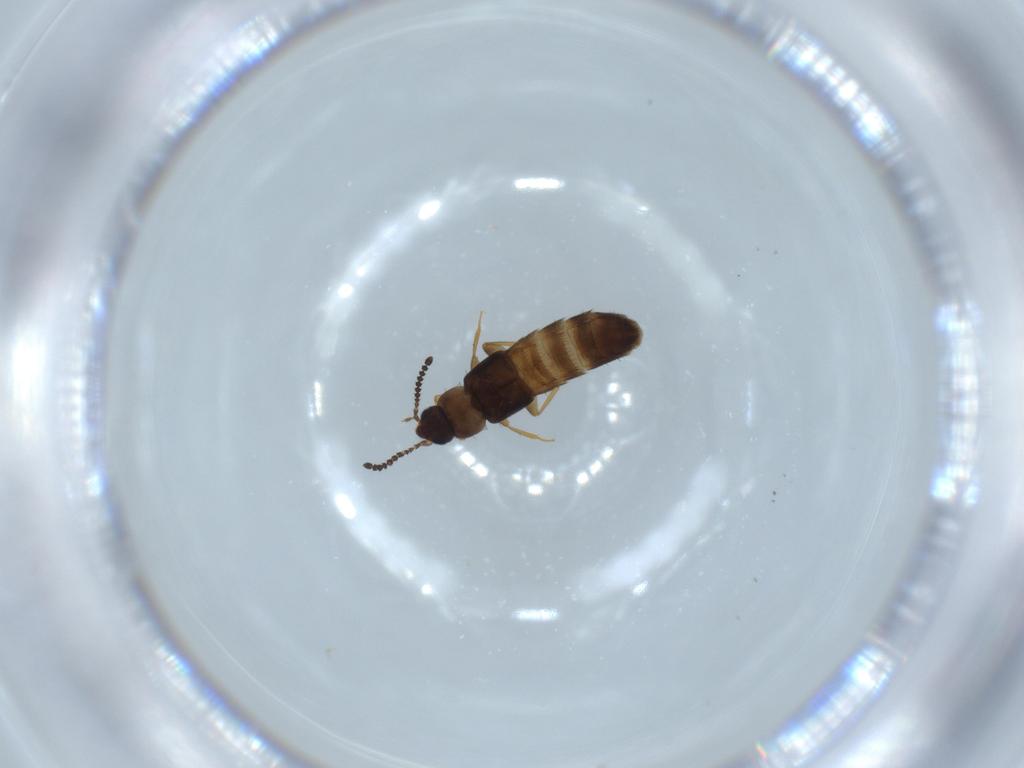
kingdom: Animalia
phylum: Arthropoda
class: Insecta
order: Coleoptera
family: Staphylinidae
